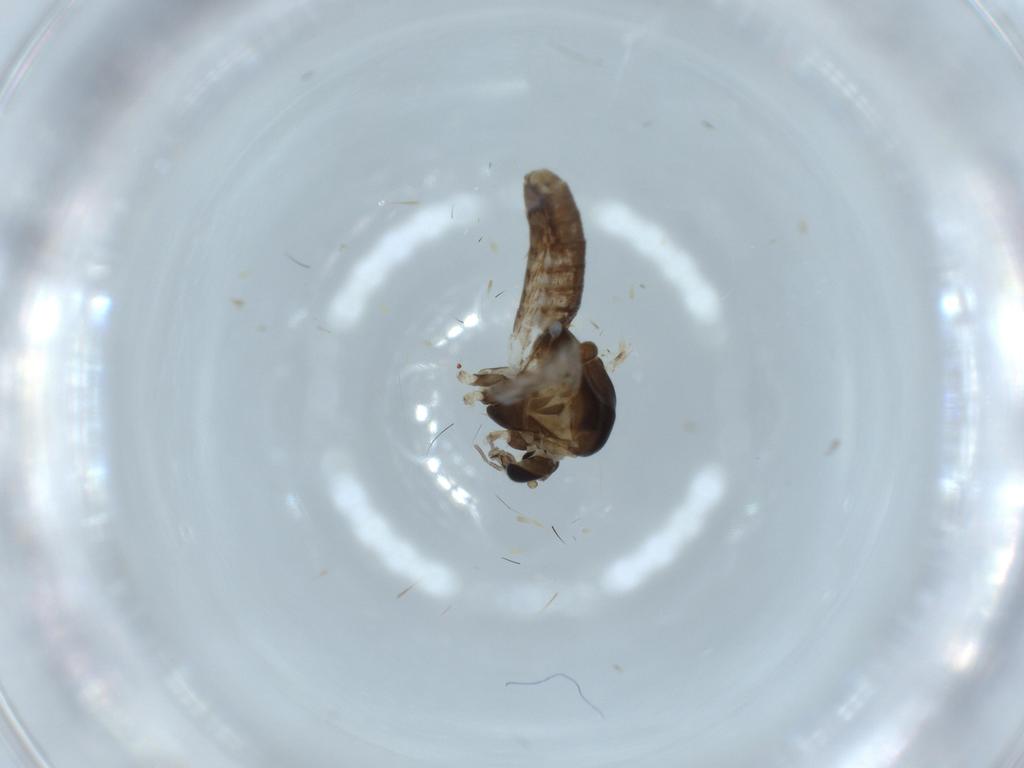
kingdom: Animalia
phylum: Arthropoda
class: Insecta
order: Diptera
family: Chironomidae
